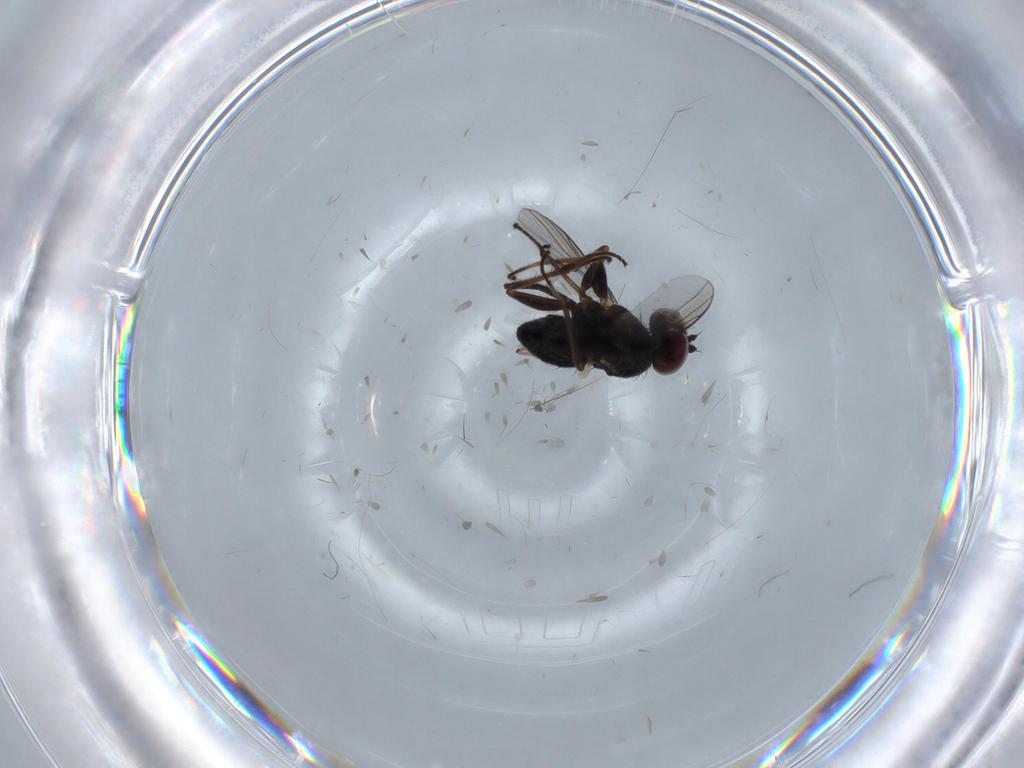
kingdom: Animalia
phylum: Arthropoda
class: Insecta
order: Diptera
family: Dolichopodidae
